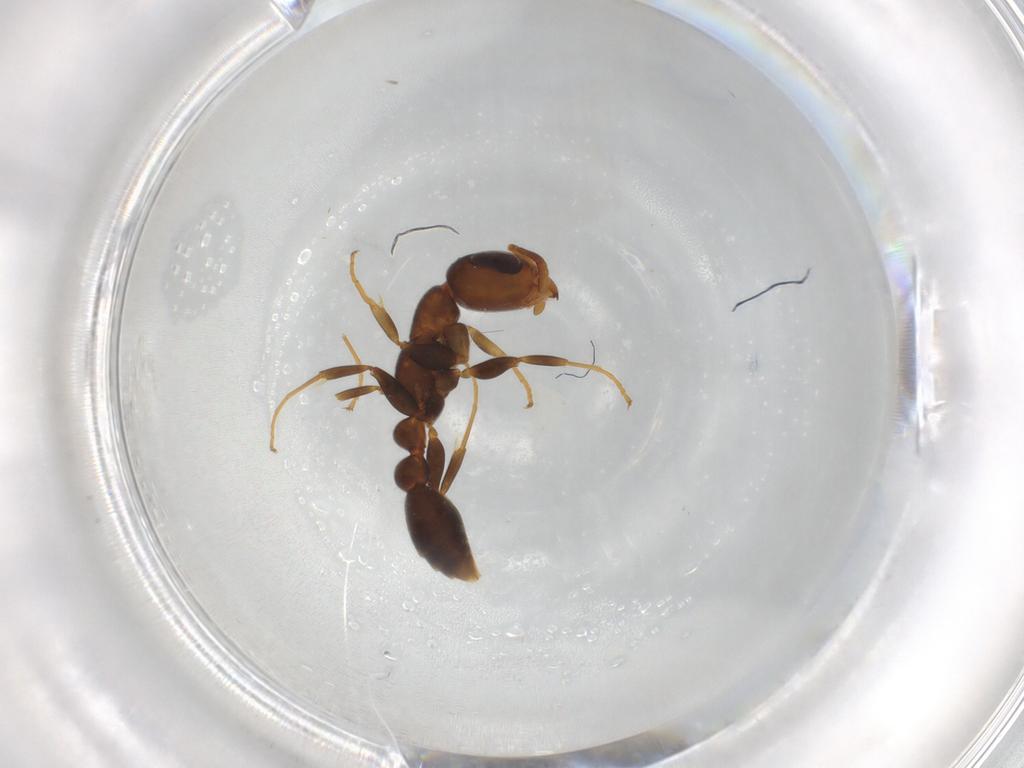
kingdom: Animalia
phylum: Arthropoda
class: Insecta
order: Hymenoptera
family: Formicidae
